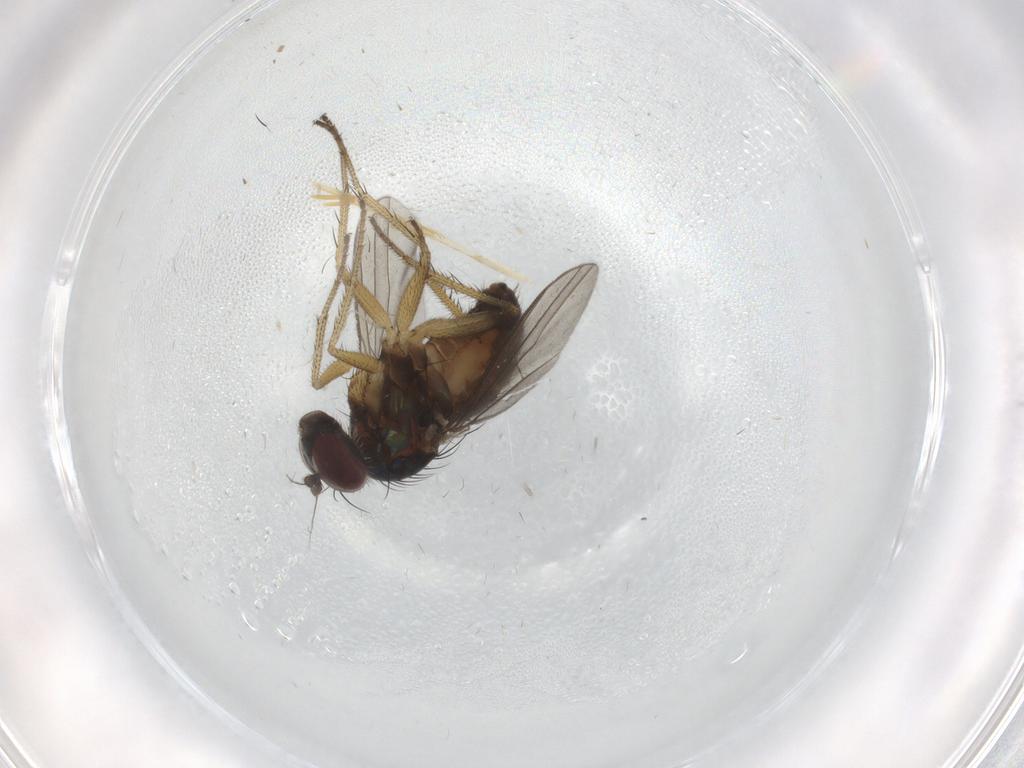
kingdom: Animalia
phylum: Arthropoda
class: Insecta
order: Diptera
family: Dolichopodidae
